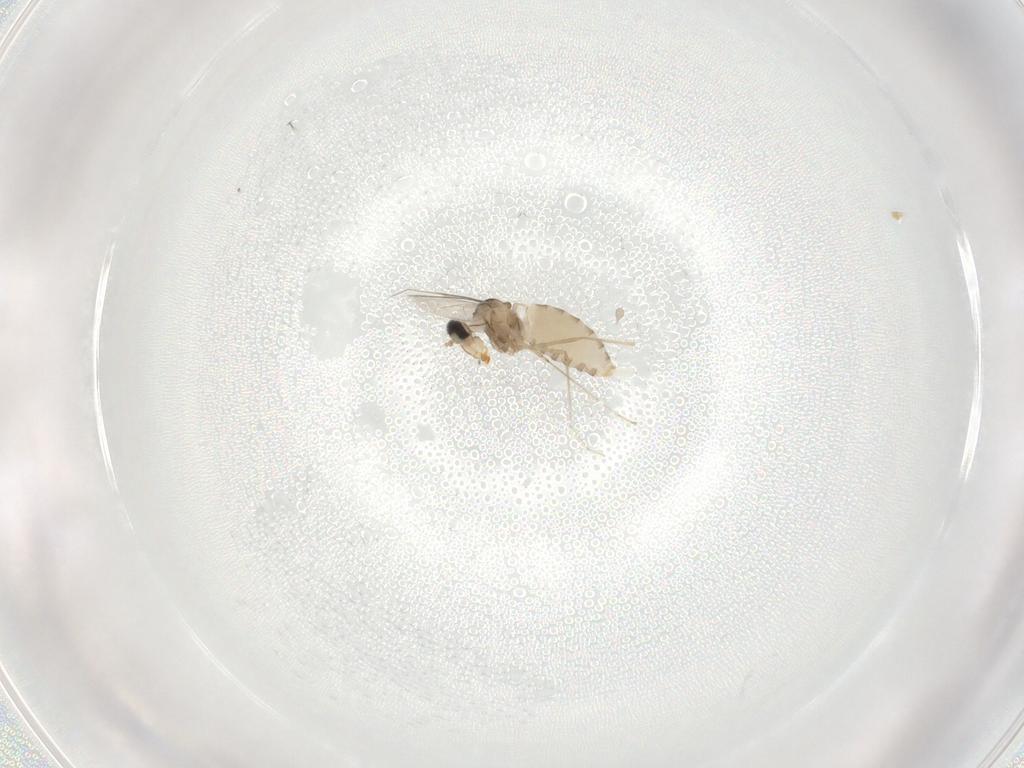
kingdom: Animalia
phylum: Arthropoda
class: Insecta
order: Diptera
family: Cecidomyiidae
